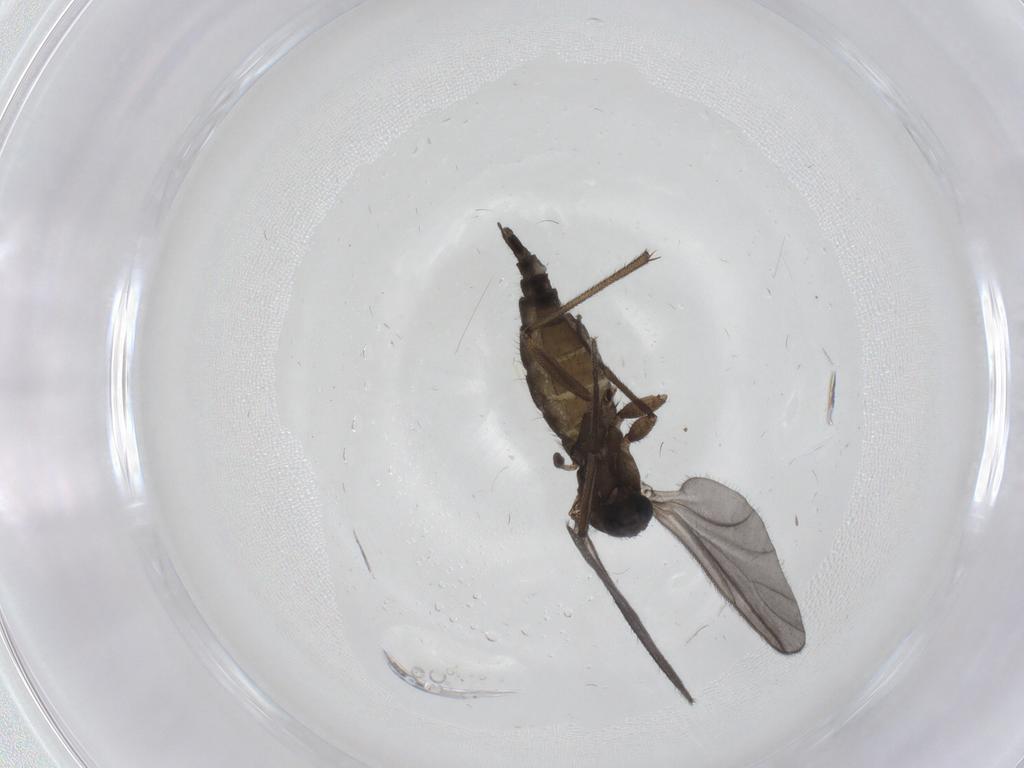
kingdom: Animalia
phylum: Arthropoda
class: Insecta
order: Diptera
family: Sciaridae
